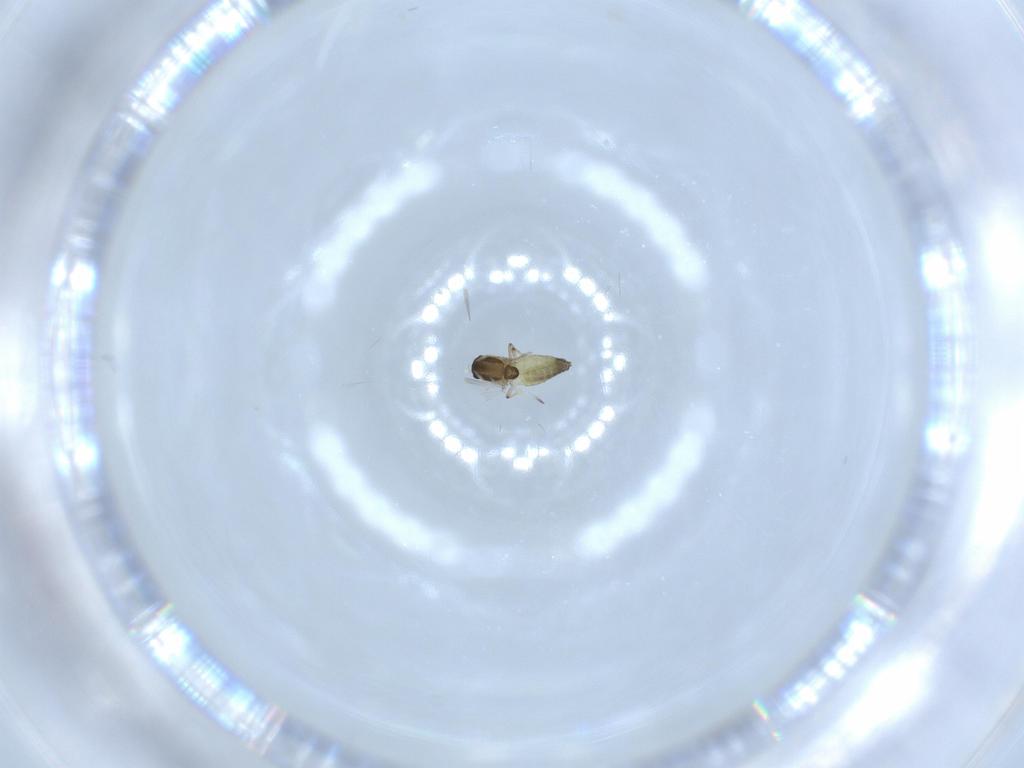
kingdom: Animalia
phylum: Arthropoda
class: Insecta
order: Diptera
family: Chironomidae
